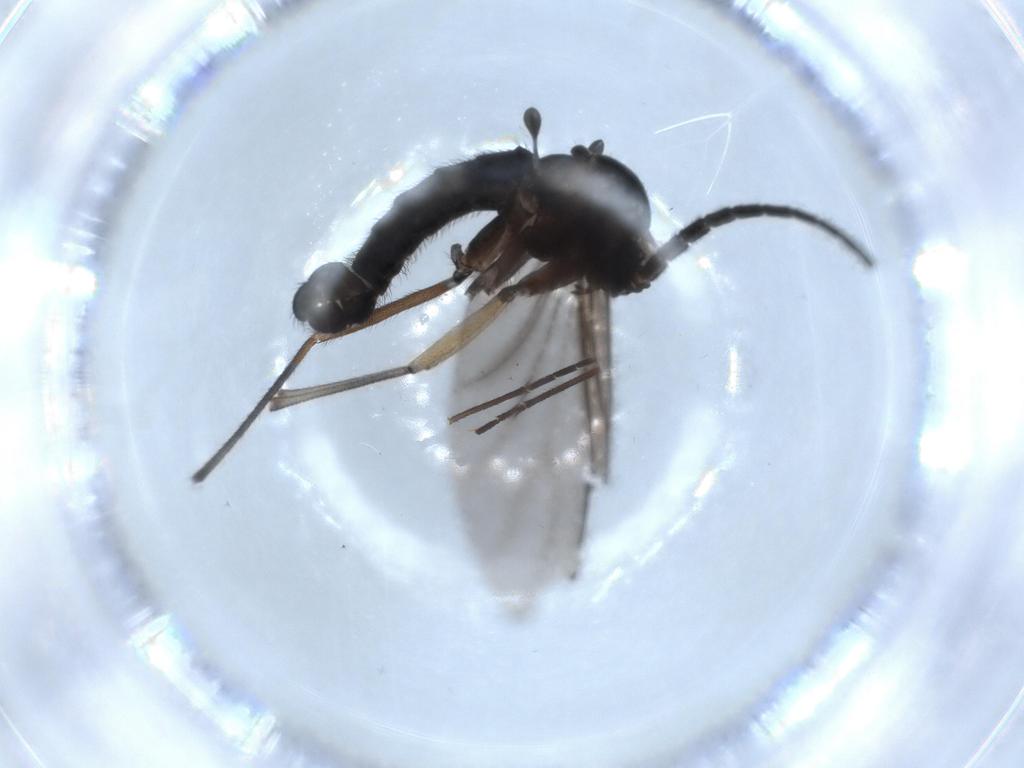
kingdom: Animalia
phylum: Arthropoda
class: Insecta
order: Diptera
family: Sciaridae
